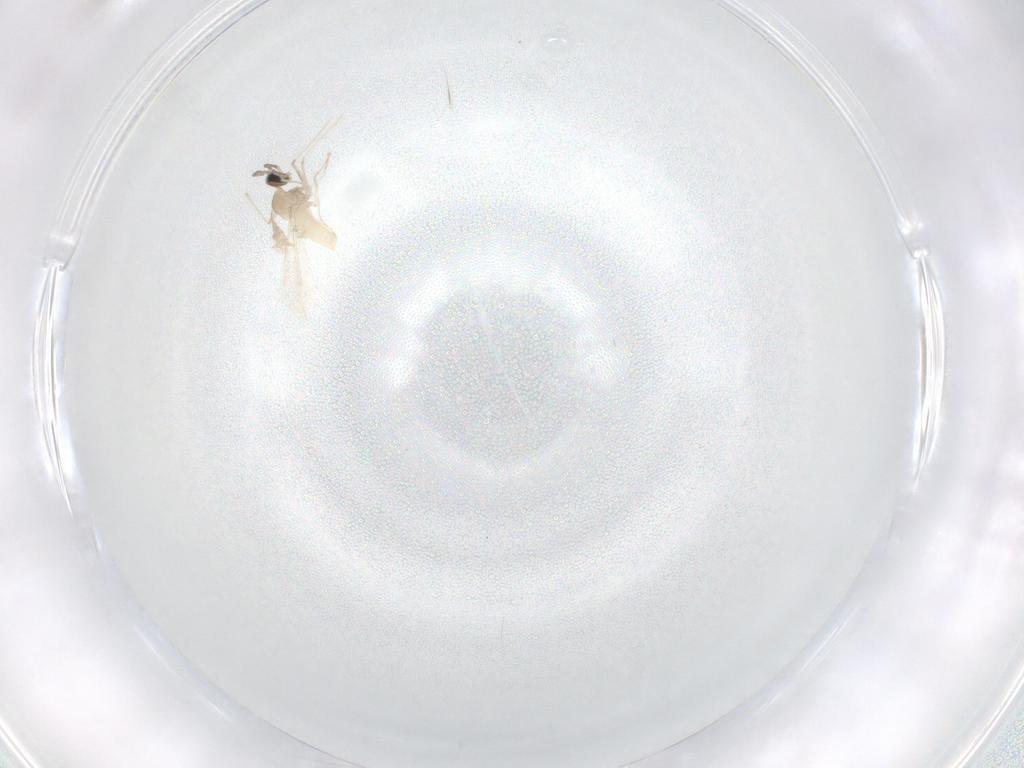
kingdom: Animalia
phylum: Arthropoda
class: Insecta
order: Diptera
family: Cecidomyiidae
